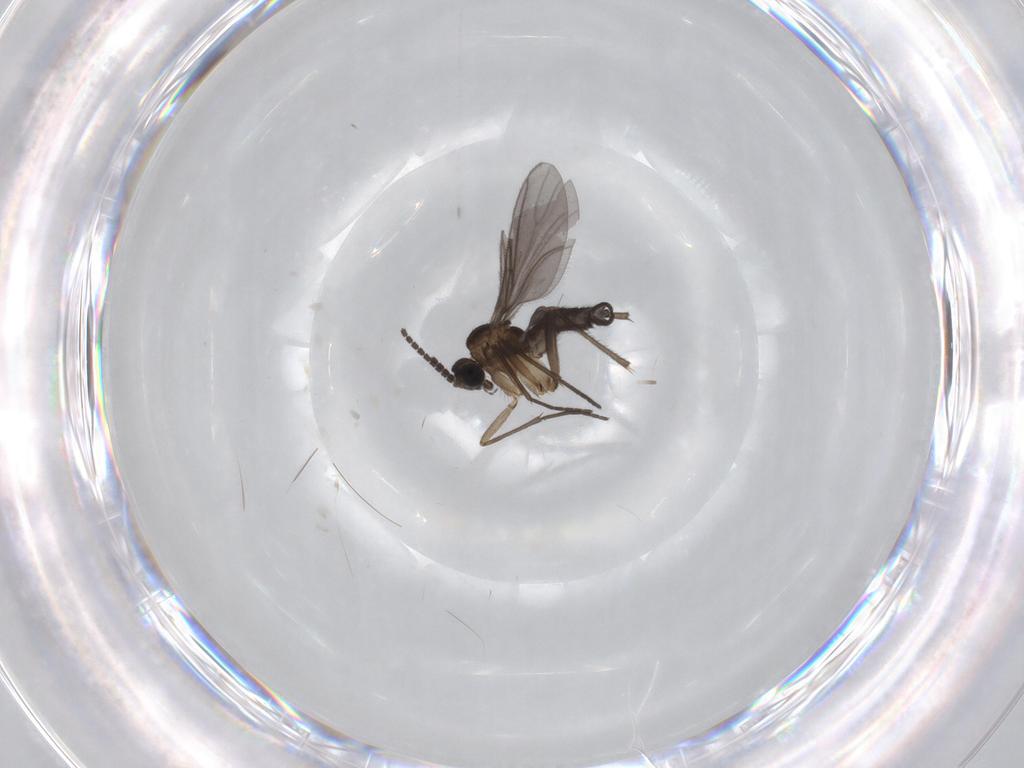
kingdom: Animalia
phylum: Arthropoda
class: Insecta
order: Diptera
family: Sciaridae
